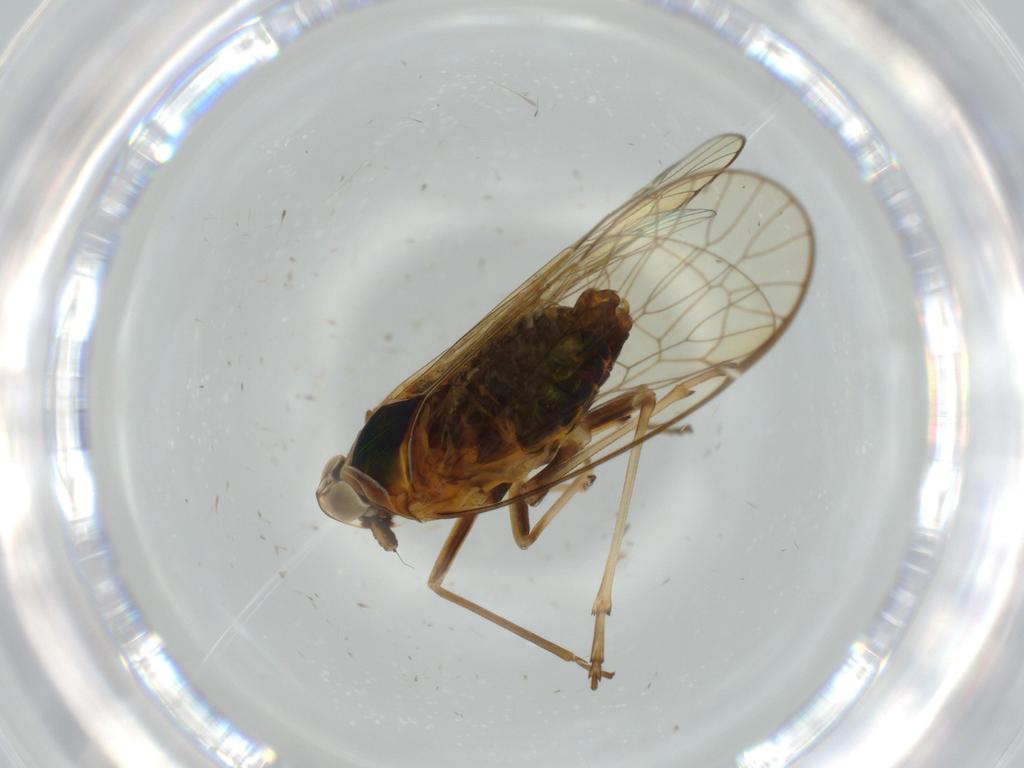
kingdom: Animalia
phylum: Arthropoda
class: Insecta
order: Hemiptera
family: Kinnaridae
